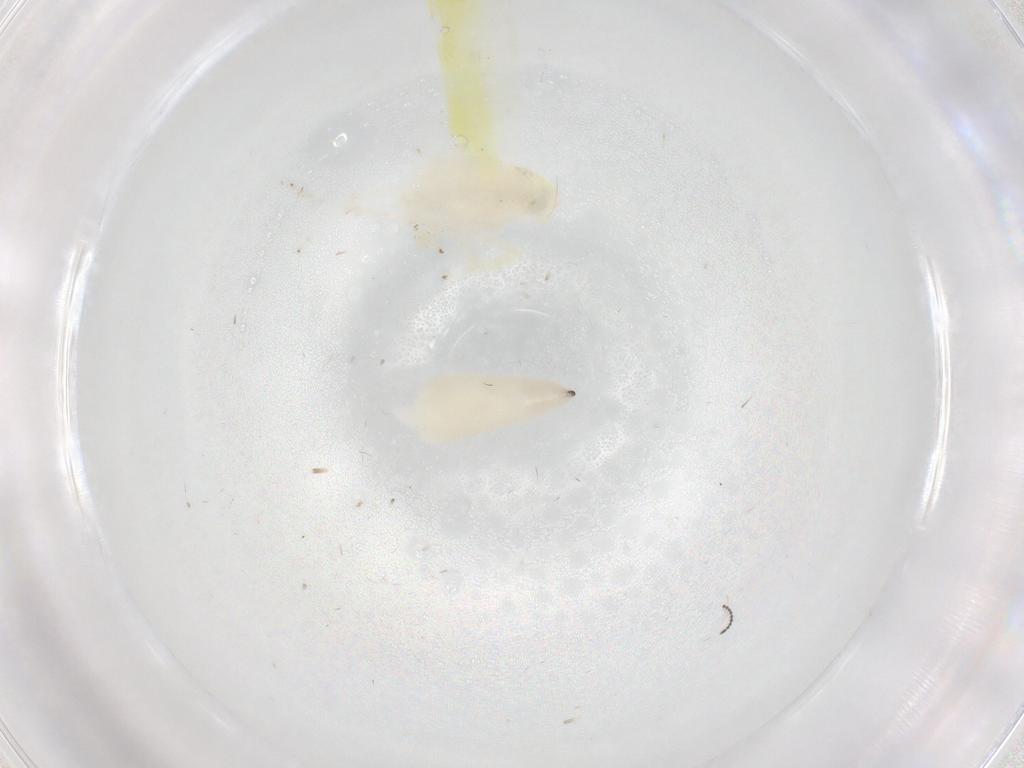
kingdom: Animalia
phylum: Arthropoda
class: Insecta
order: Hemiptera
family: Cicadellidae
